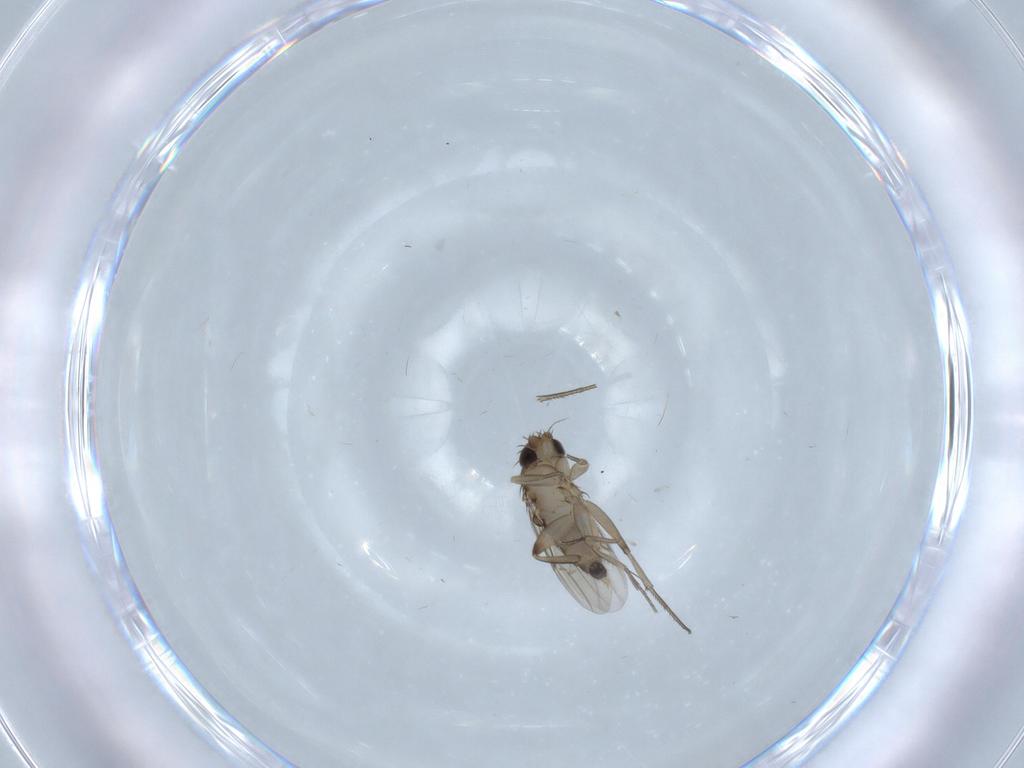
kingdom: Animalia
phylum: Arthropoda
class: Insecta
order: Diptera
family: Phoridae
